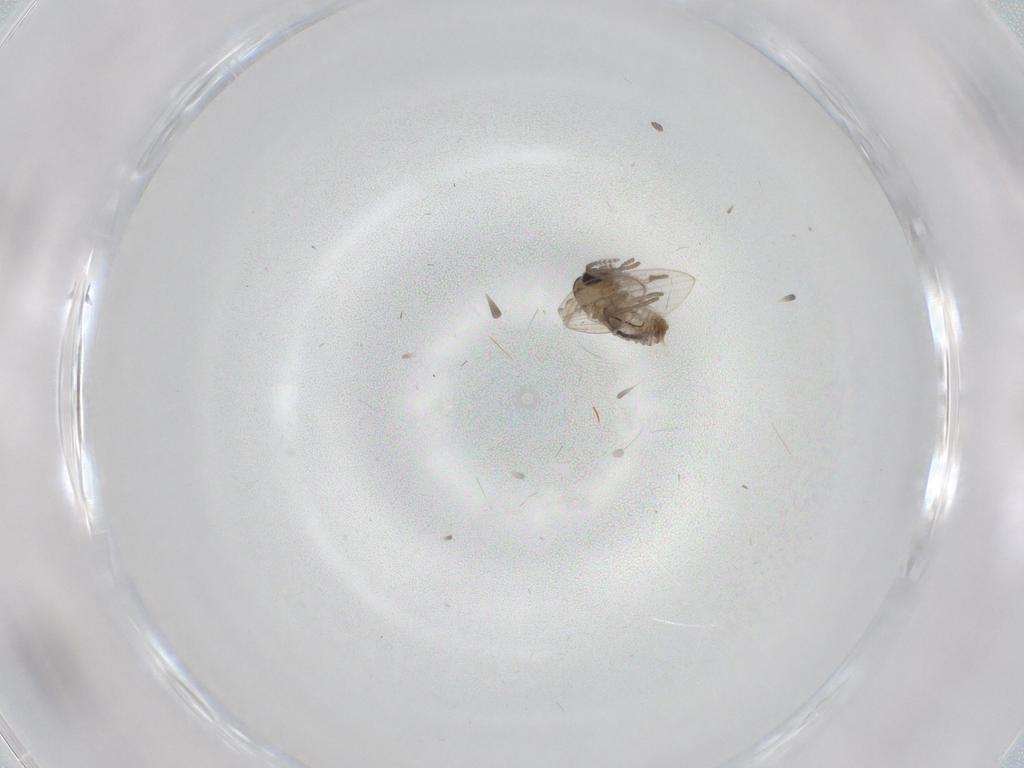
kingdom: Animalia
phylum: Arthropoda
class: Insecta
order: Diptera
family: Psychodidae
